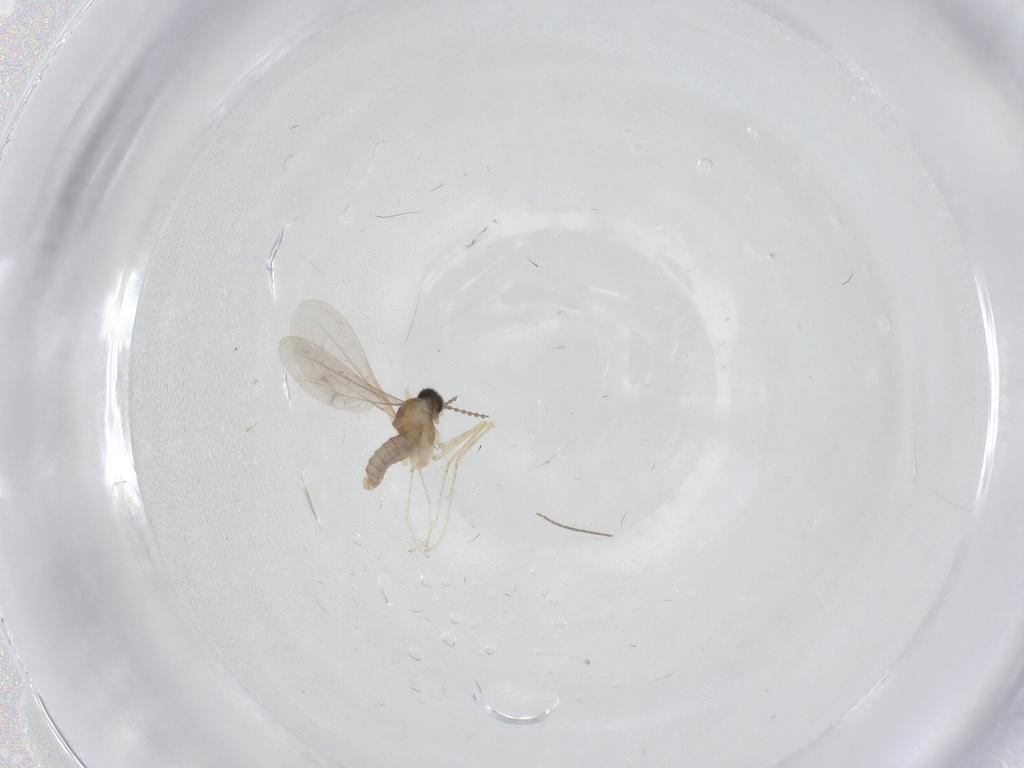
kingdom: Animalia
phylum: Arthropoda
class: Insecta
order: Diptera
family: Cecidomyiidae
